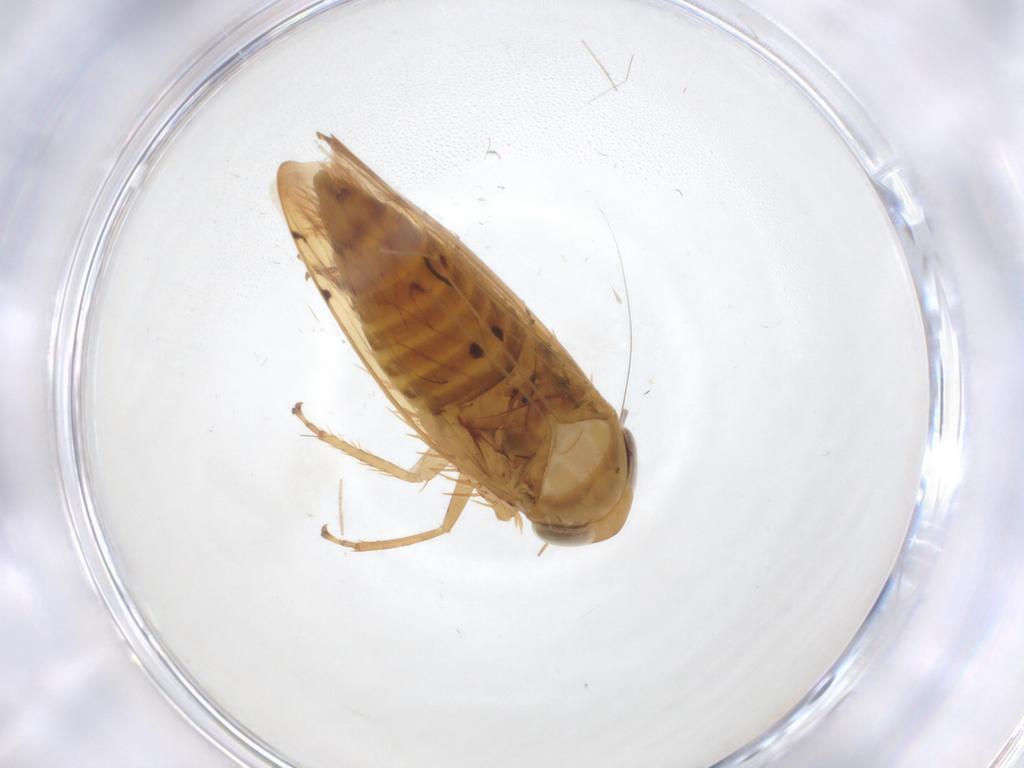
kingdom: Animalia
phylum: Arthropoda
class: Insecta
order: Hemiptera
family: Cicadellidae
